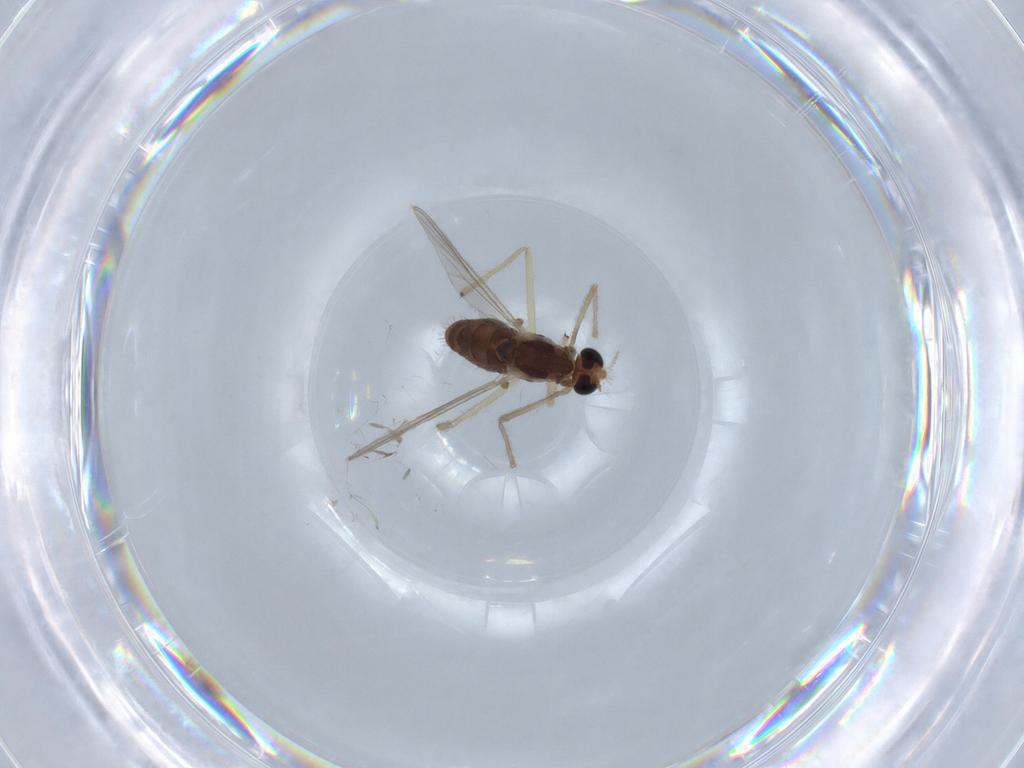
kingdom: Animalia
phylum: Arthropoda
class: Insecta
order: Diptera
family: Chironomidae
